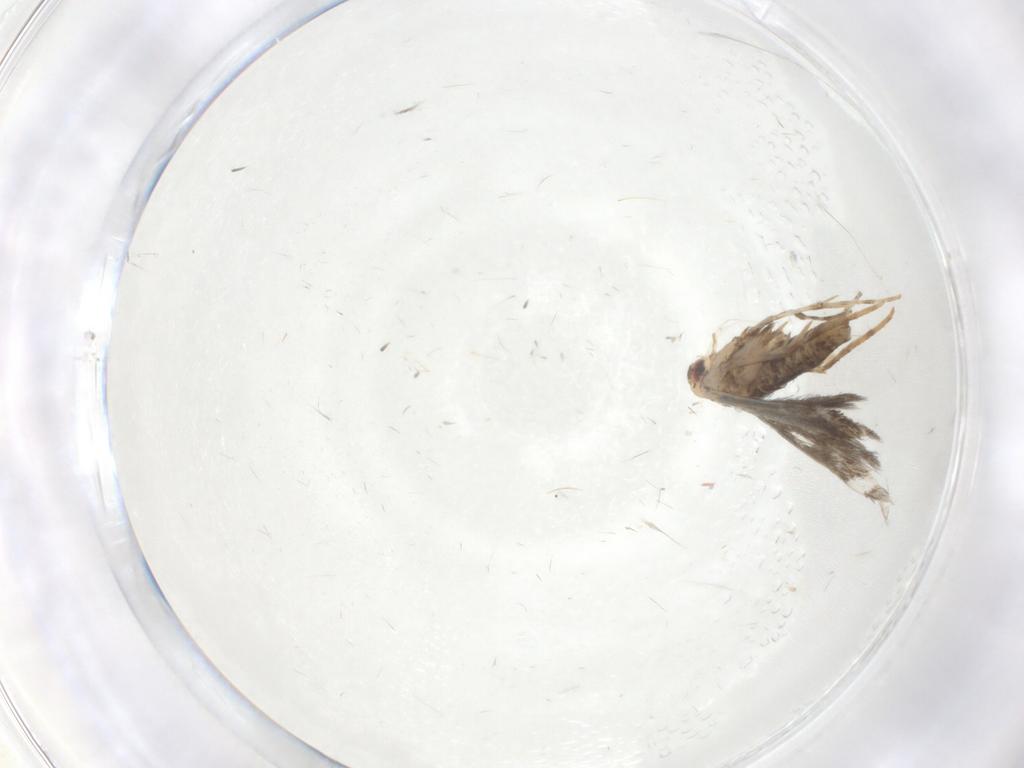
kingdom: Animalia
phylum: Arthropoda
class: Insecta
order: Lepidoptera
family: Gracillariidae
